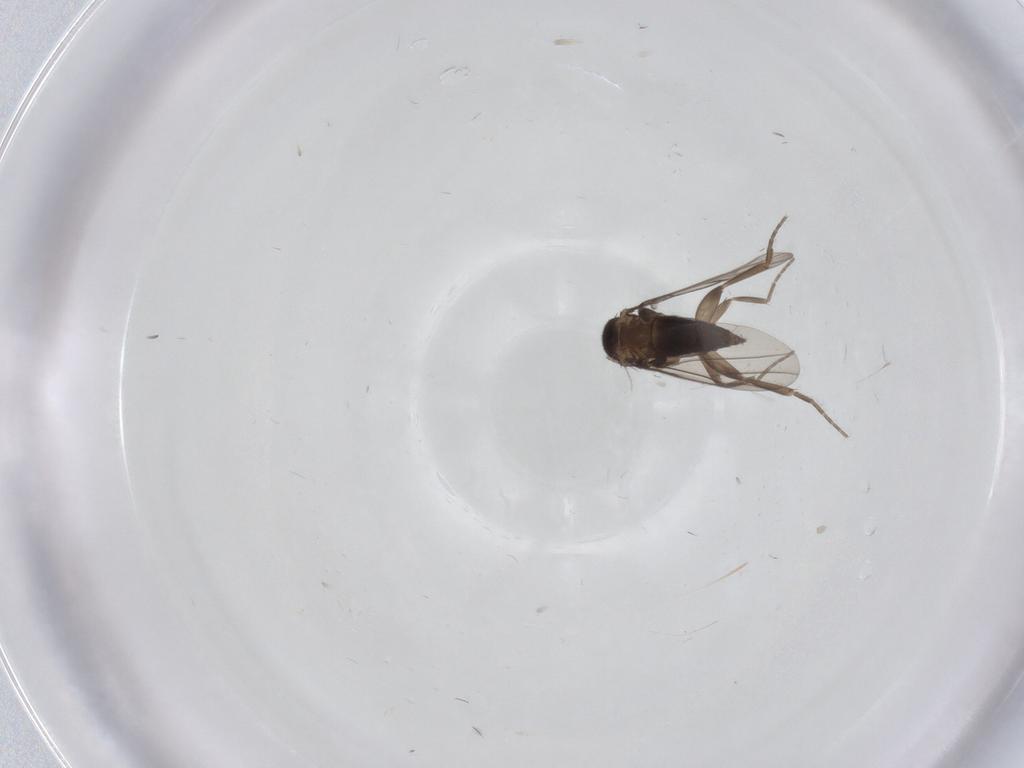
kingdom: Animalia
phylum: Arthropoda
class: Insecta
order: Diptera
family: Phoridae
